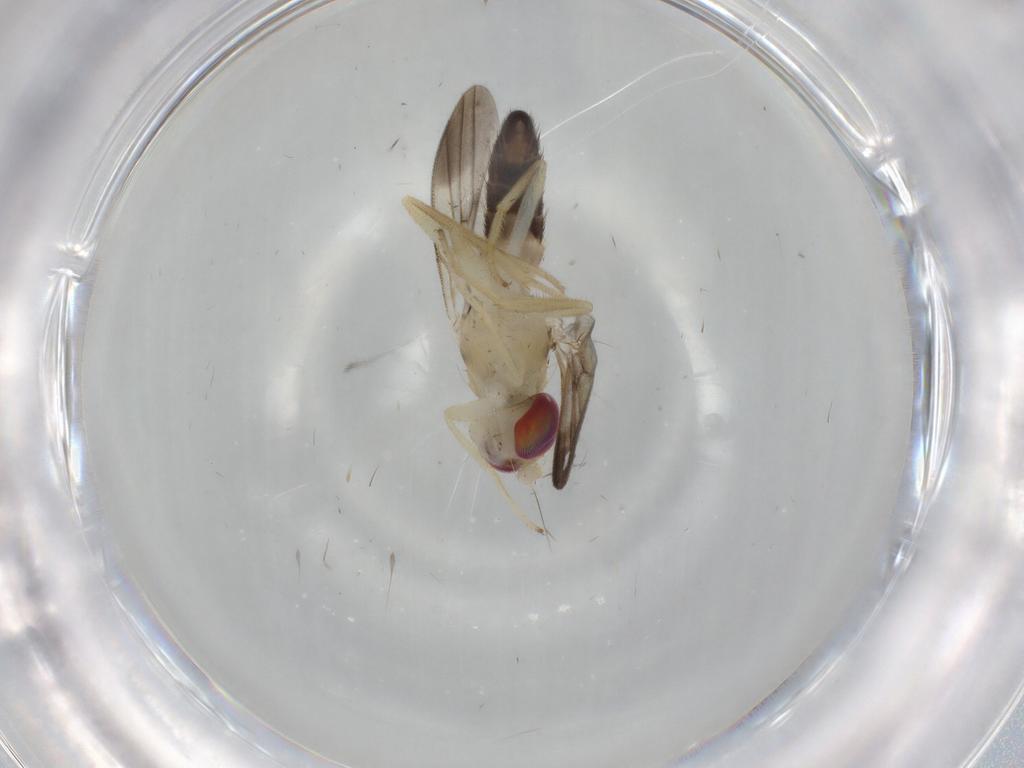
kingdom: Animalia
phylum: Arthropoda
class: Insecta
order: Diptera
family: Clusiidae
